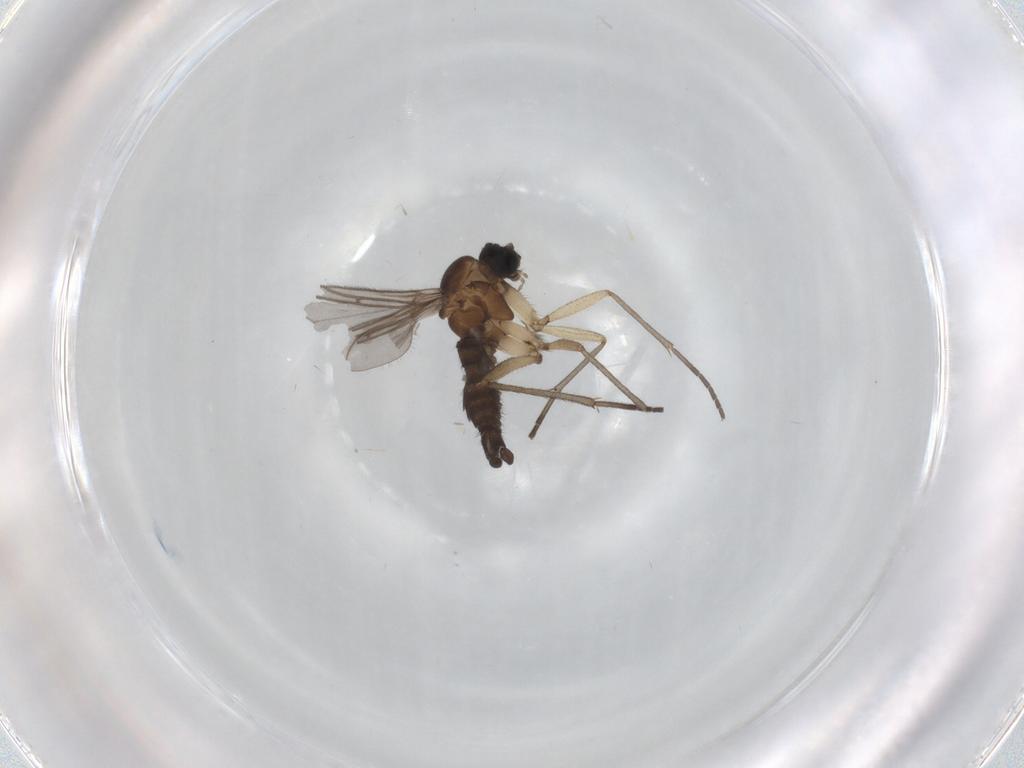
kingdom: Animalia
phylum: Arthropoda
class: Insecta
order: Diptera
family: Sciaridae
